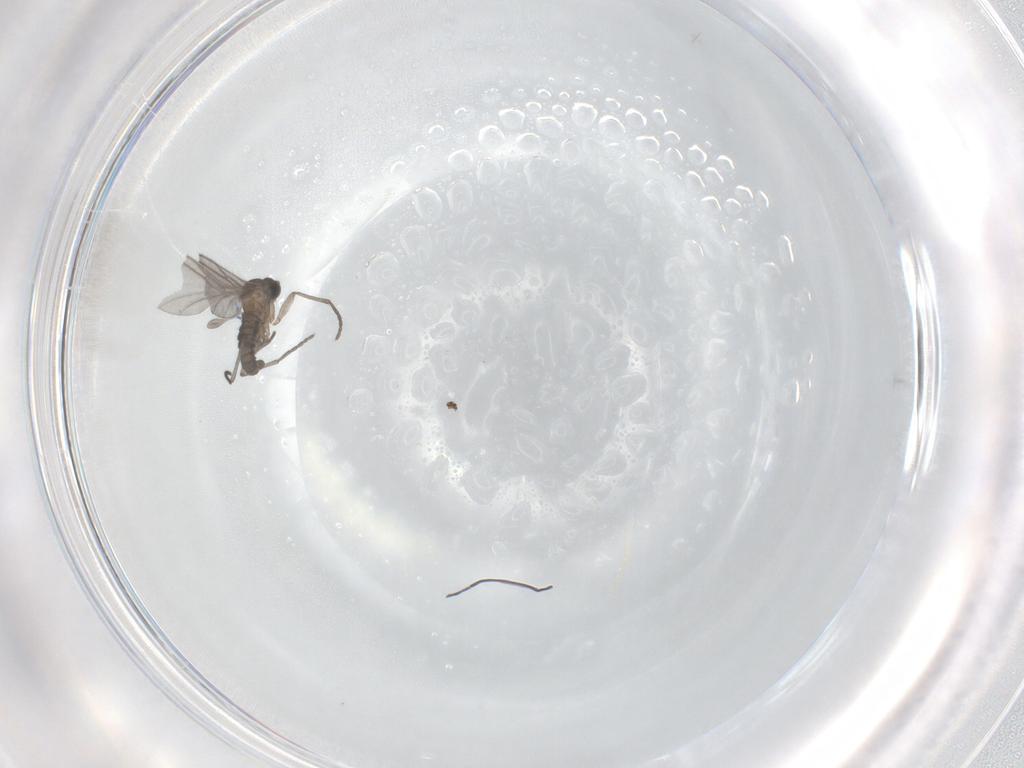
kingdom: Animalia
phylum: Arthropoda
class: Insecta
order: Diptera
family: Sciaridae
